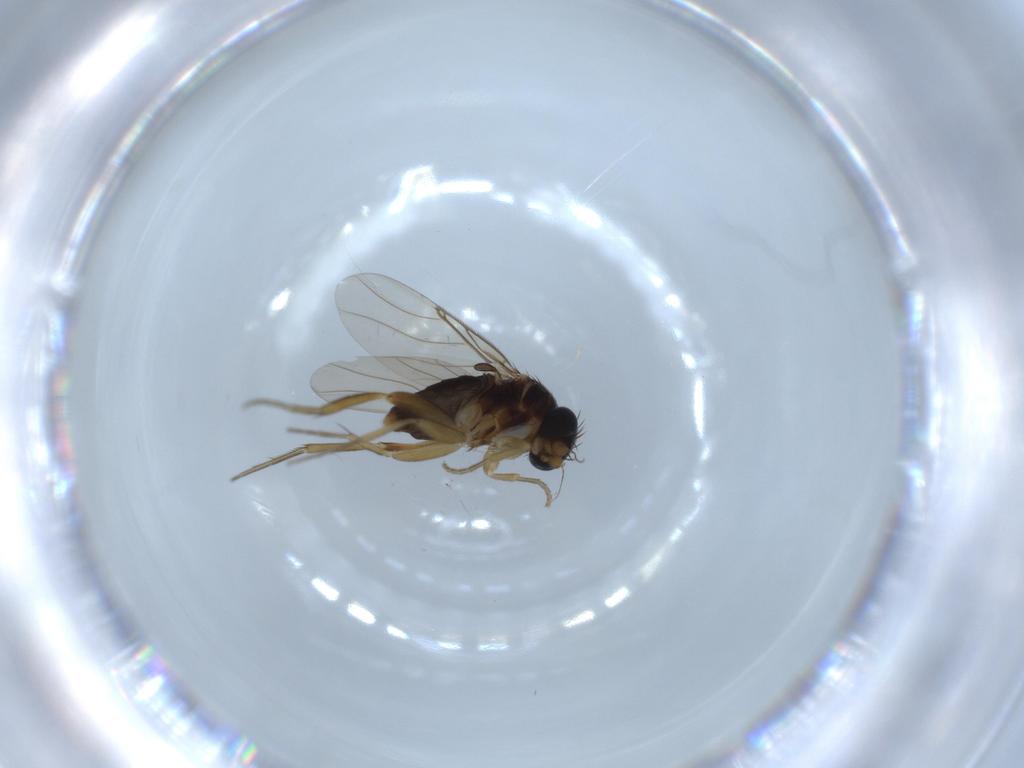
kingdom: Animalia
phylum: Arthropoda
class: Insecta
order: Diptera
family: Phoridae
